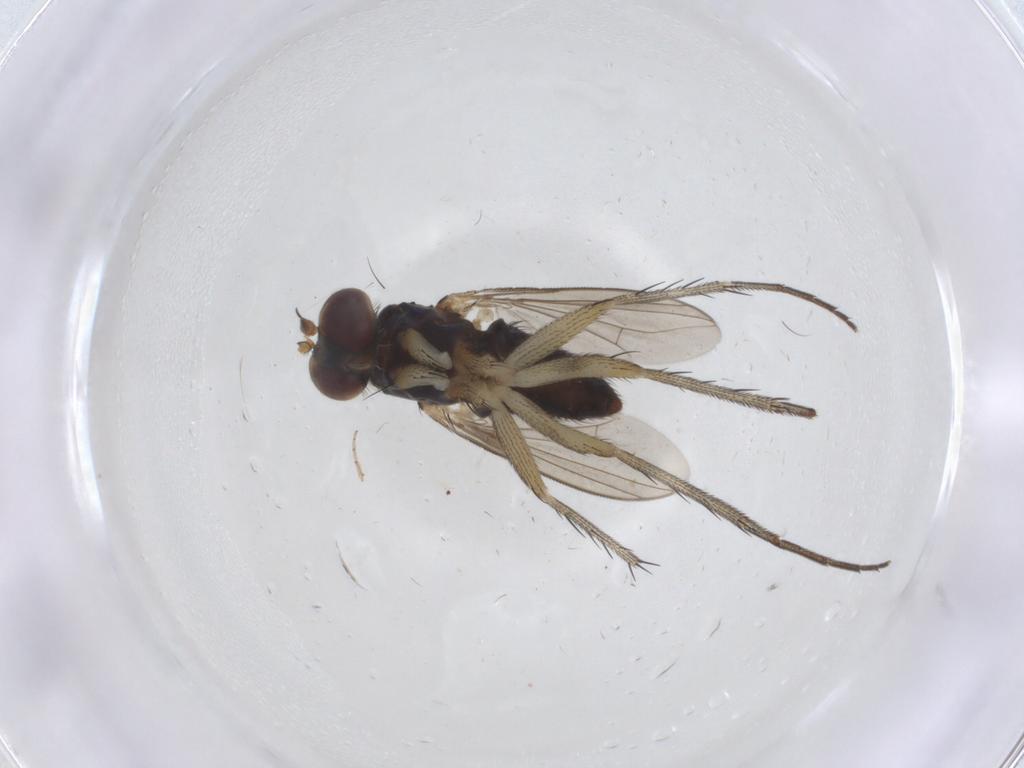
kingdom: Animalia
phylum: Arthropoda
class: Insecta
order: Diptera
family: Dolichopodidae
